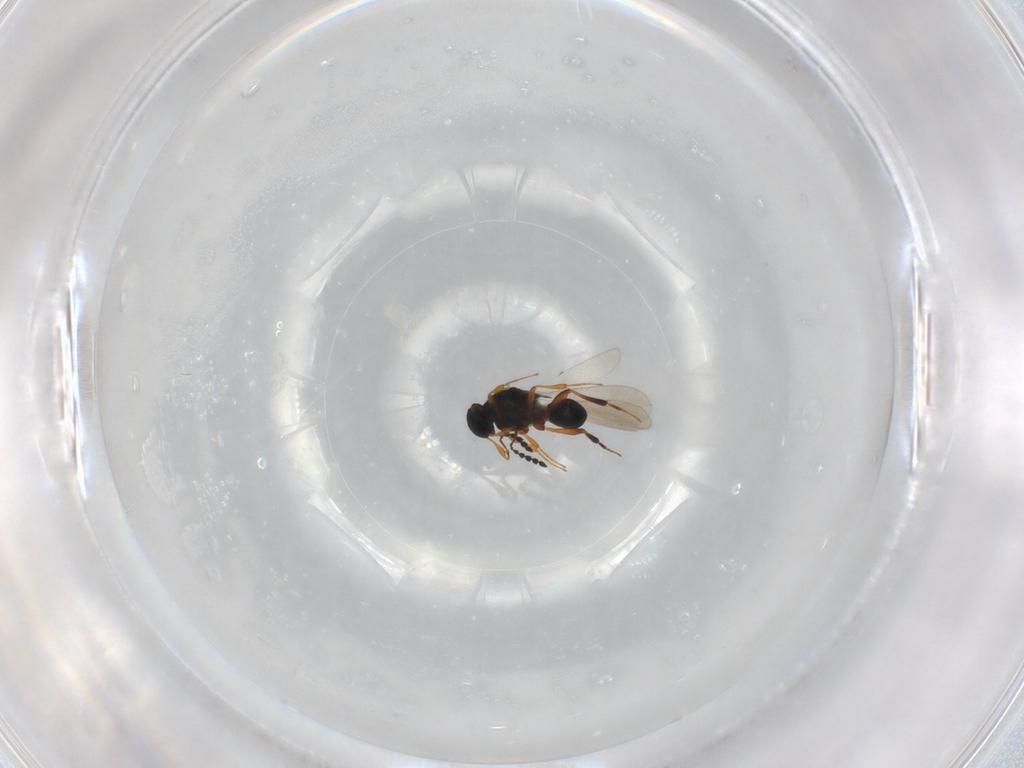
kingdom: Animalia
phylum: Arthropoda
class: Insecta
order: Hymenoptera
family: Platygastridae
